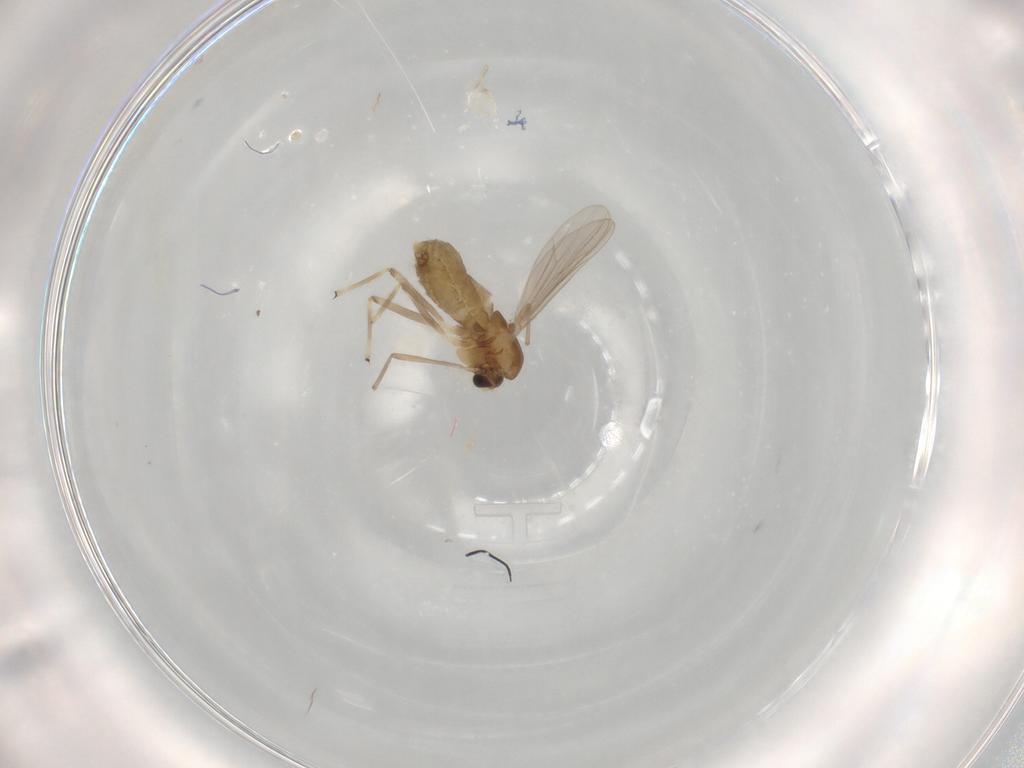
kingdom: Animalia
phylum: Arthropoda
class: Insecta
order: Diptera
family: Chironomidae
